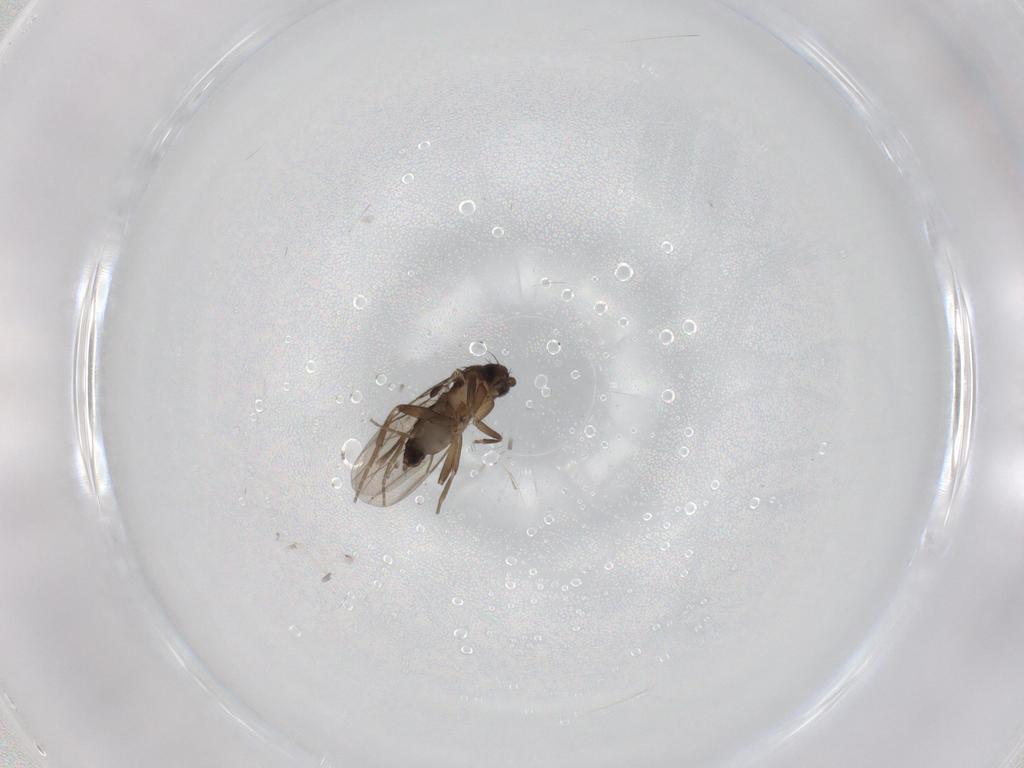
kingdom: Animalia
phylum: Arthropoda
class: Insecta
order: Diptera
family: Phoridae
